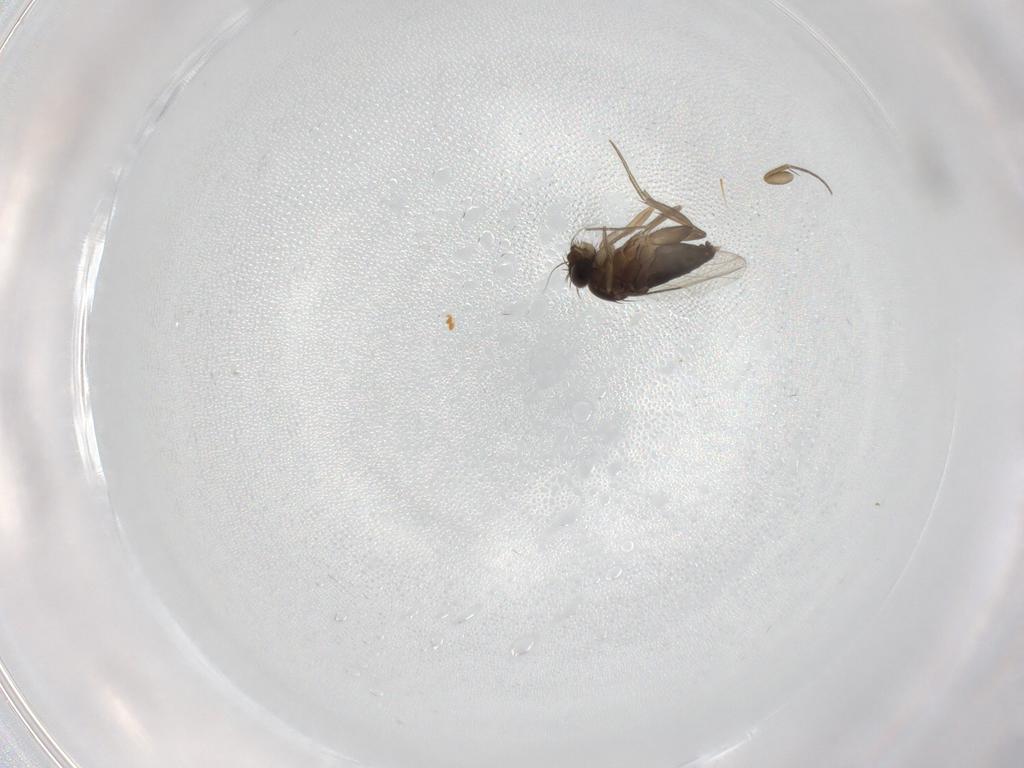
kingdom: Animalia
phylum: Arthropoda
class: Insecta
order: Diptera
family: Phoridae
